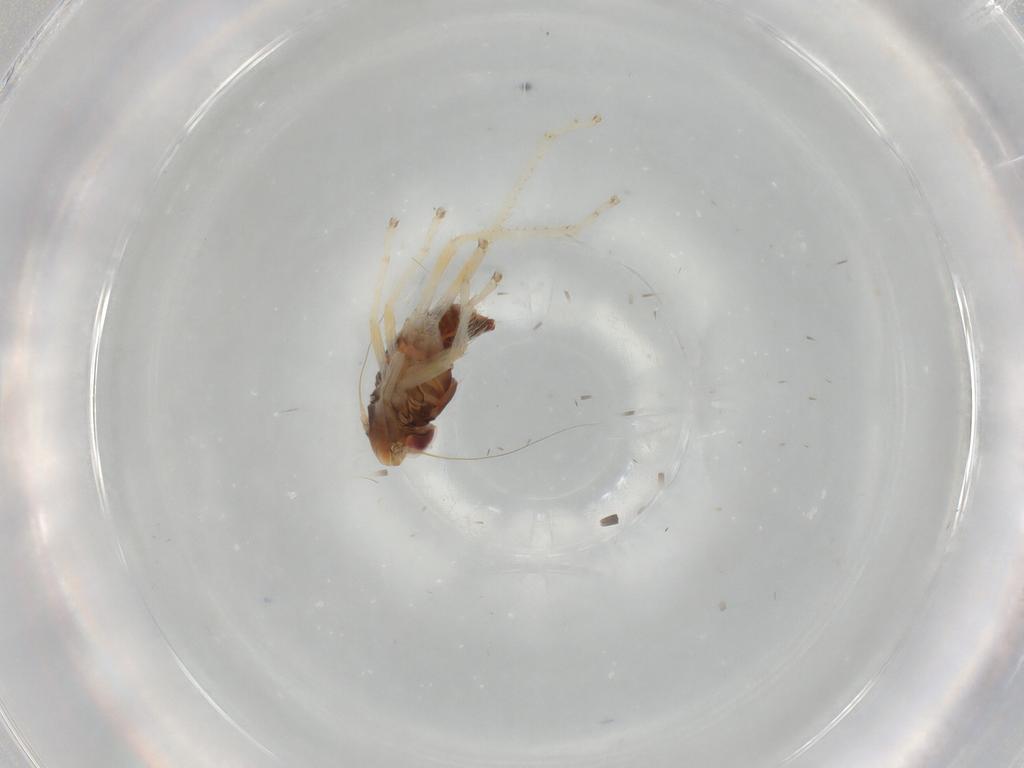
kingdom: Animalia
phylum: Arthropoda
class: Insecta
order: Hemiptera
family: Cicadellidae
